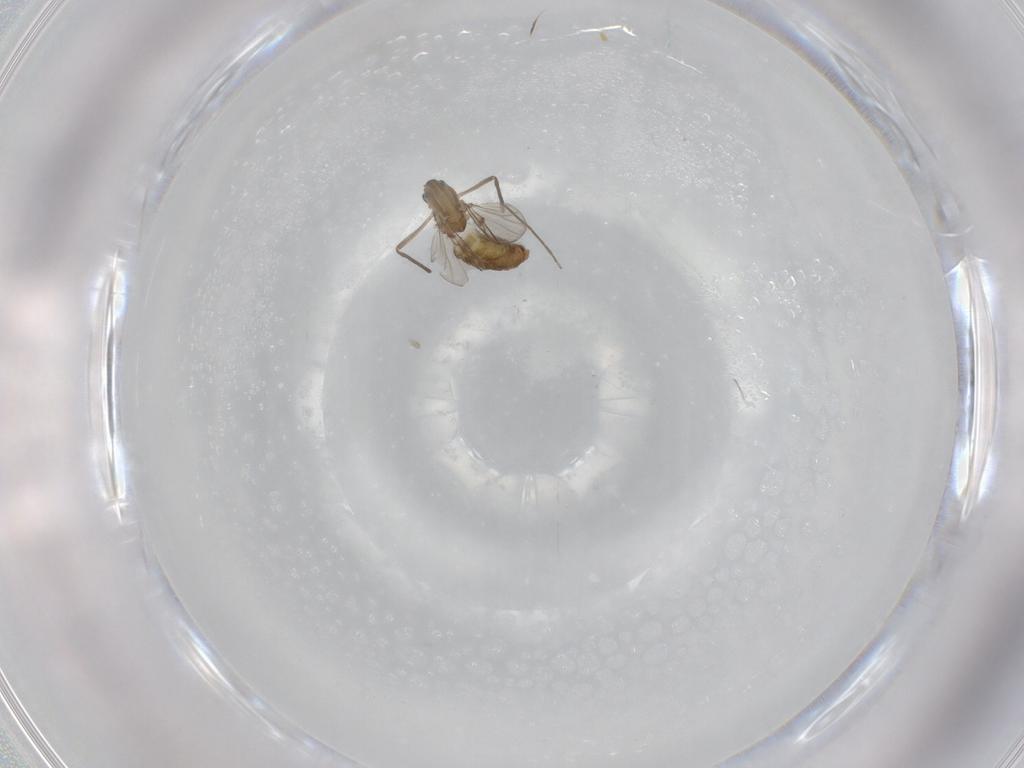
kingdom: Animalia
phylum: Arthropoda
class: Insecta
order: Diptera
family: Chironomidae
